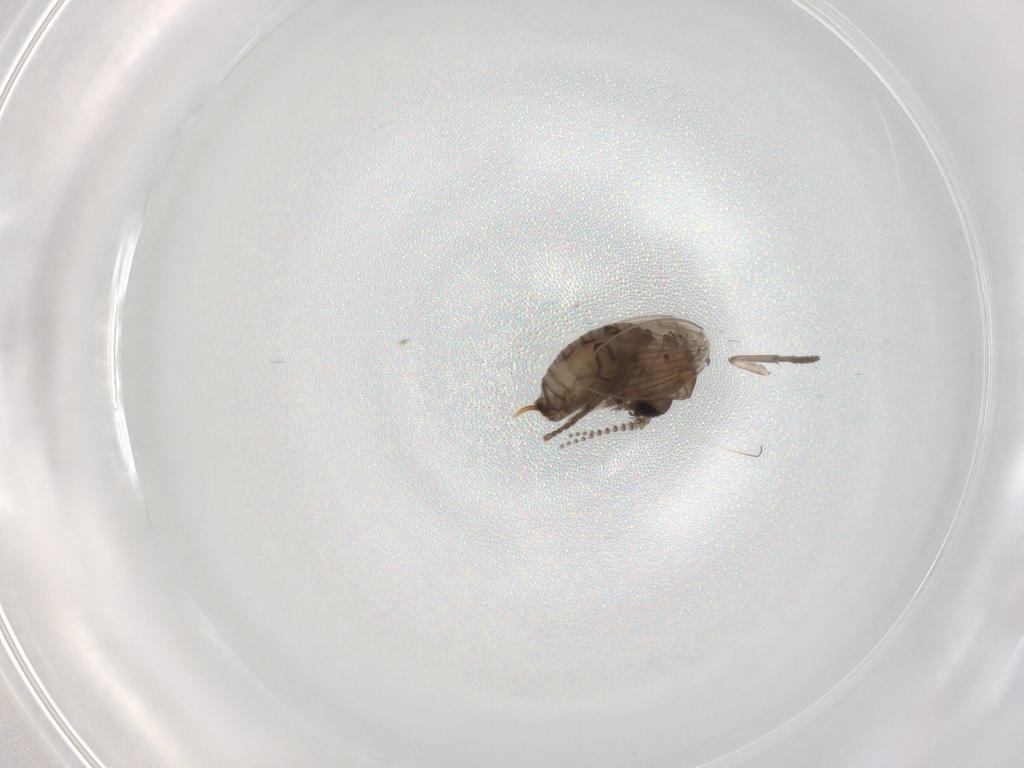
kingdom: Animalia
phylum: Arthropoda
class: Insecta
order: Diptera
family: Psychodidae
